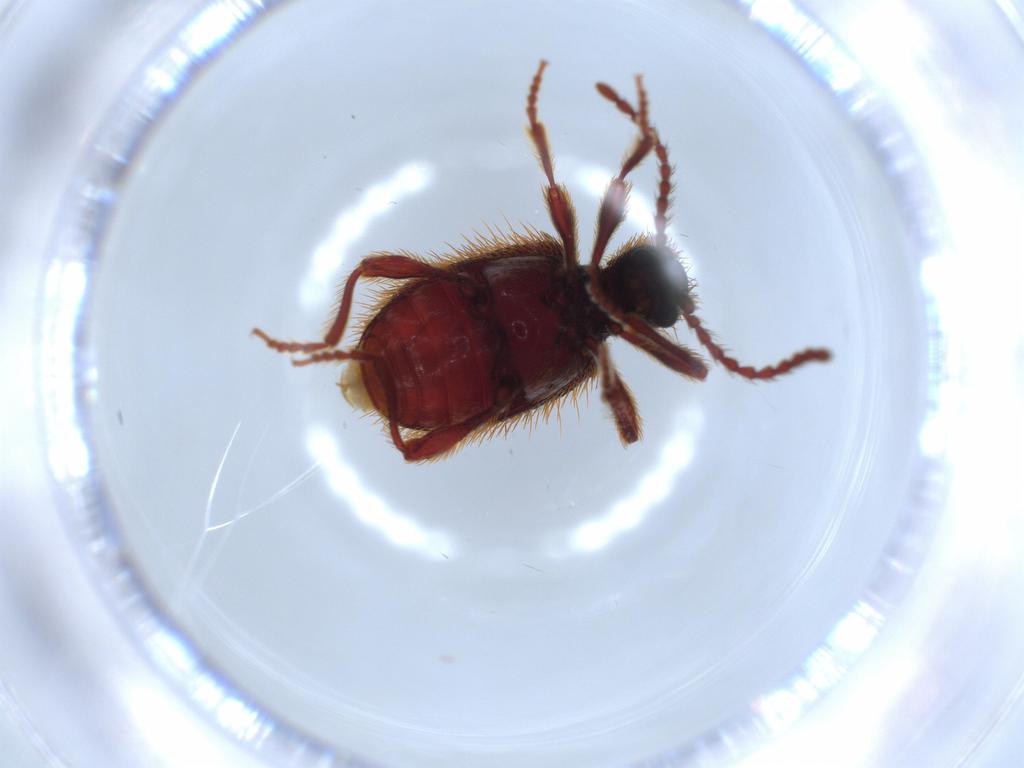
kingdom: Animalia
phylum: Arthropoda
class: Insecta
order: Coleoptera
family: Ptinidae
